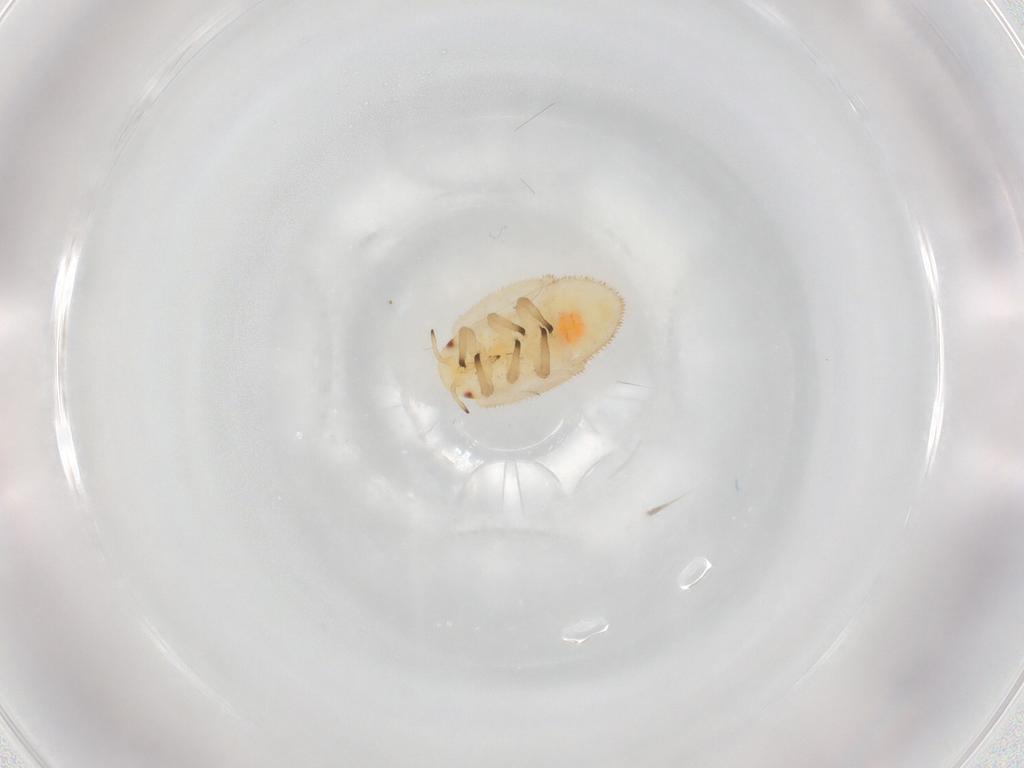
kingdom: Animalia
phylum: Arthropoda
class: Insecta
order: Hemiptera
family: Triozidae
